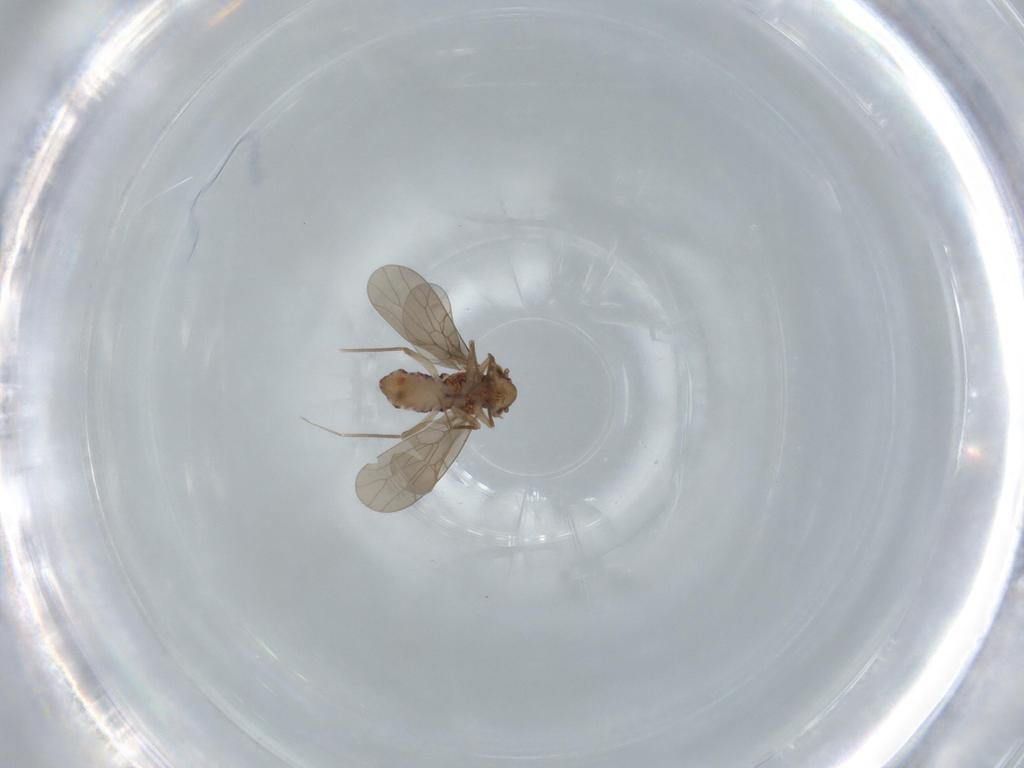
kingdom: Animalia
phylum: Arthropoda
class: Insecta
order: Psocodea
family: Lepidopsocidae
